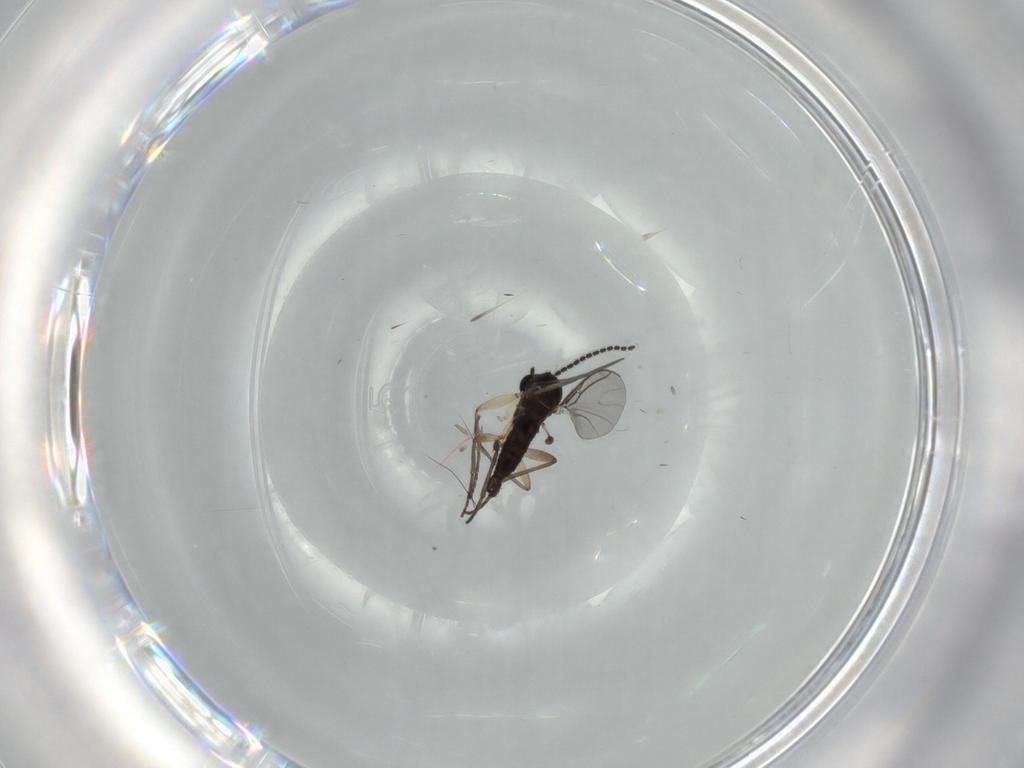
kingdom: Animalia
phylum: Arthropoda
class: Insecta
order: Diptera
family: Sciaridae
